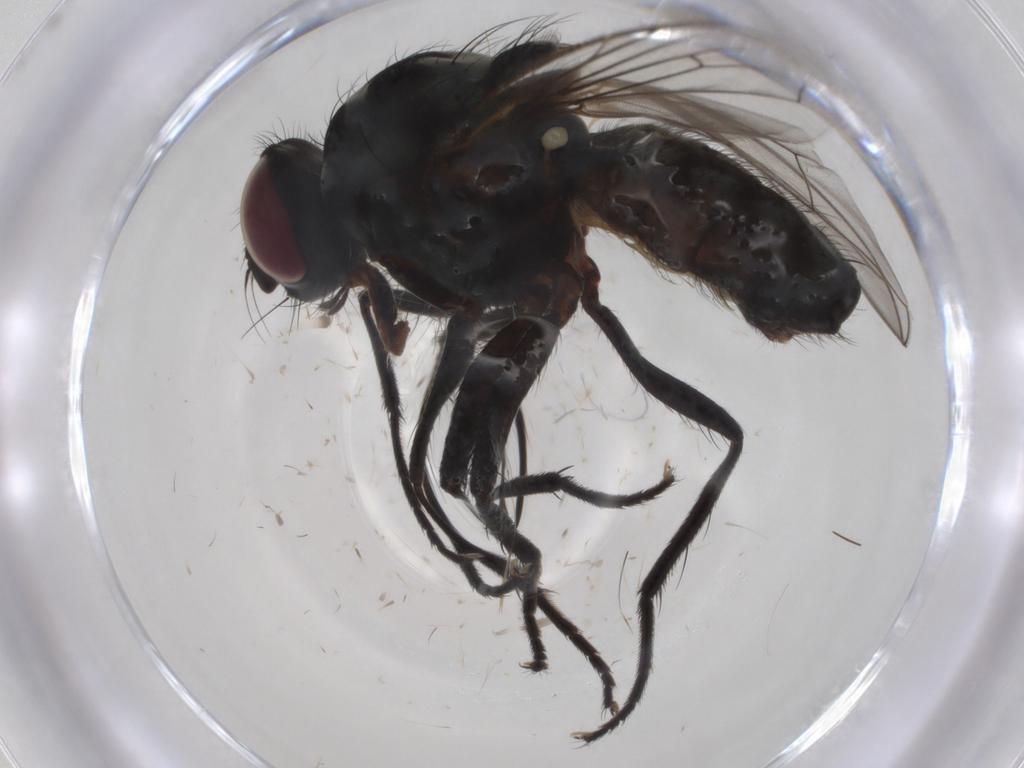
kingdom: Animalia
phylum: Arthropoda
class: Insecta
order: Diptera
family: Anthomyiidae
